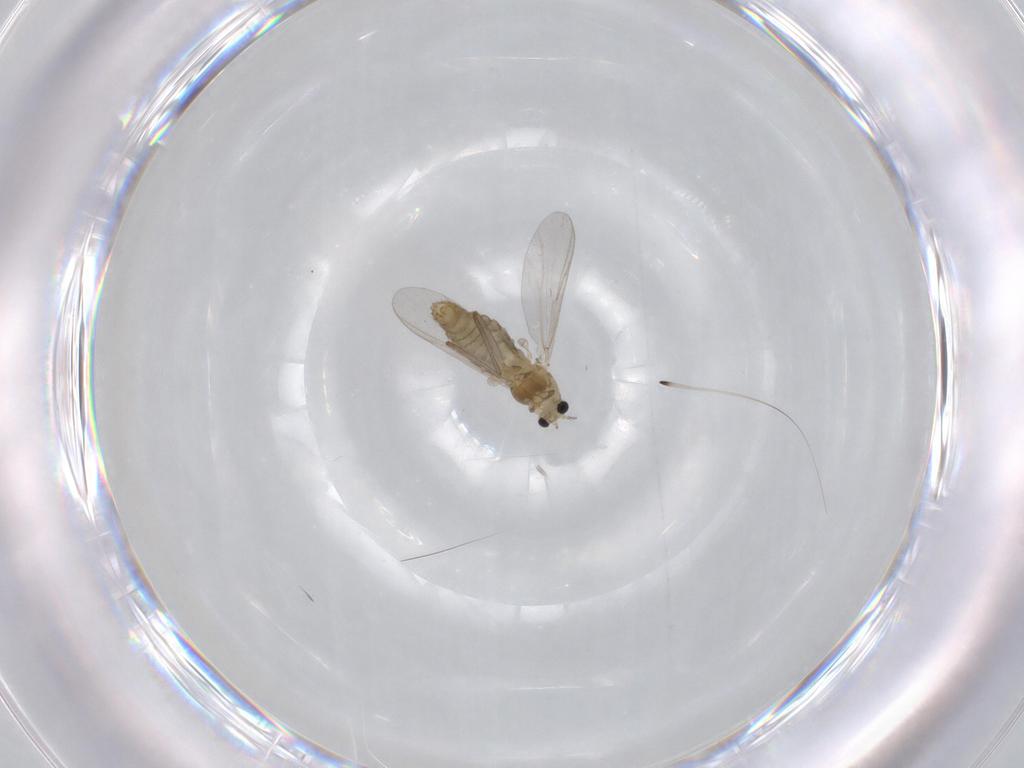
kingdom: Animalia
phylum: Arthropoda
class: Insecta
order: Diptera
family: Chironomidae
